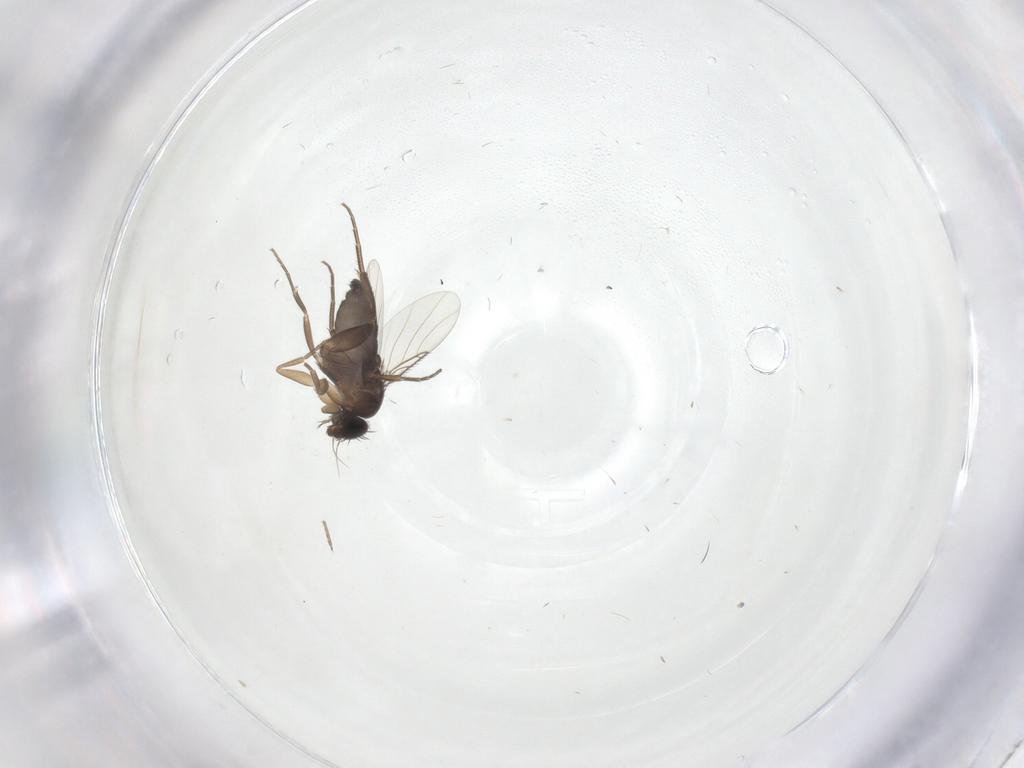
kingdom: Animalia
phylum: Arthropoda
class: Insecta
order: Diptera
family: Phoridae
